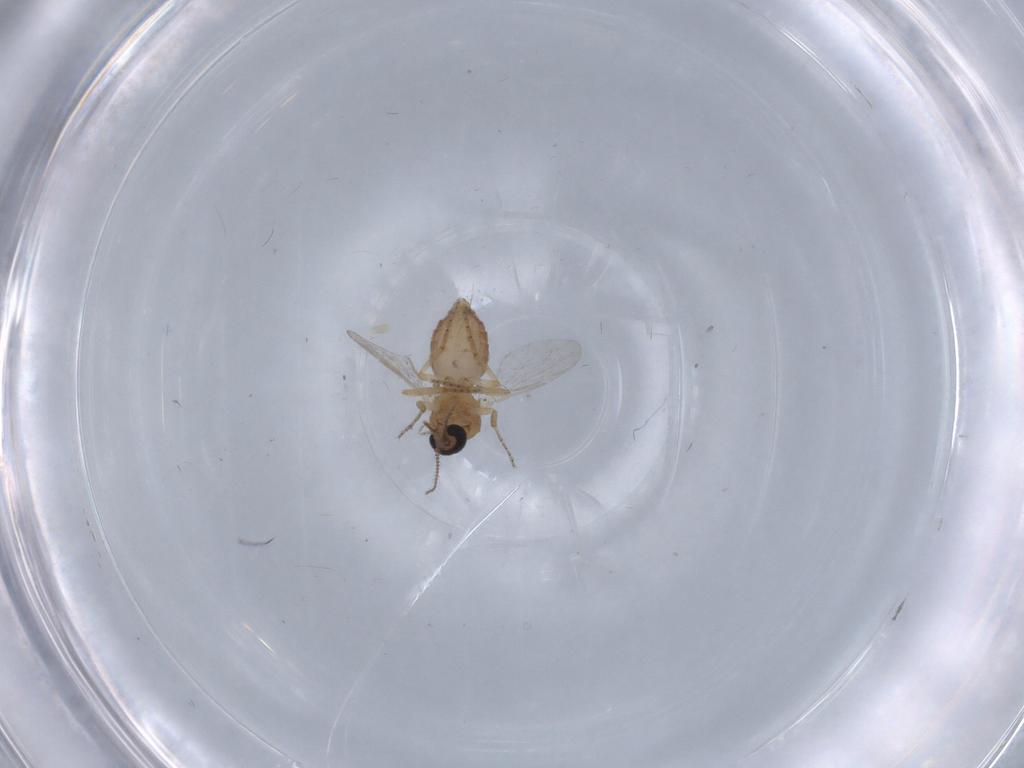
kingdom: Animalia
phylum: Arthropoda
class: Insecta
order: Diptera
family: Ceratopogonidae
